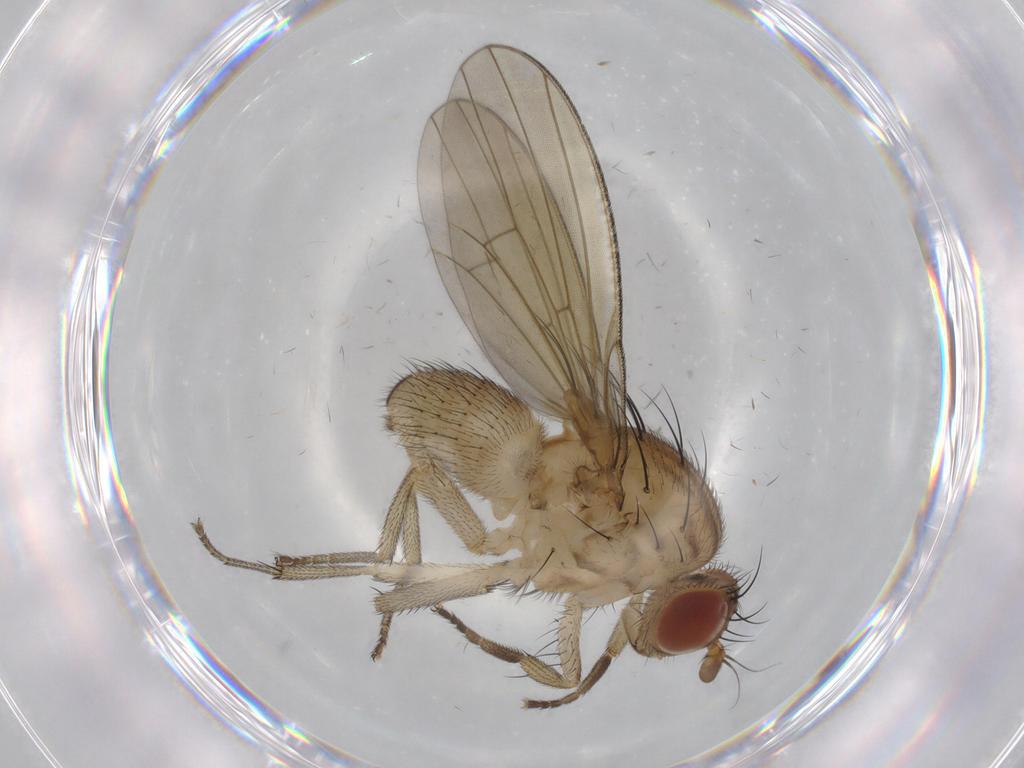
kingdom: Animalia
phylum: Arthropoda
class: Insecta
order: Diptera
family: Cecidomyiidae
